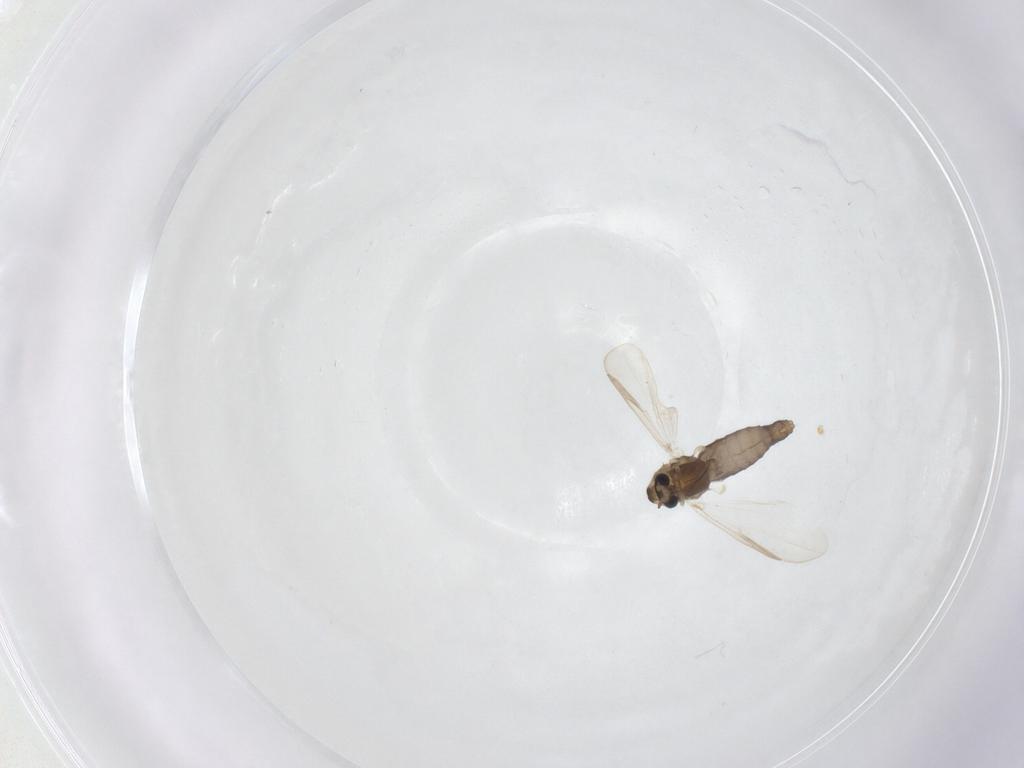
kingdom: Animalia
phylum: Arthropoda
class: Insecta
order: Diptera
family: Chironomidae
